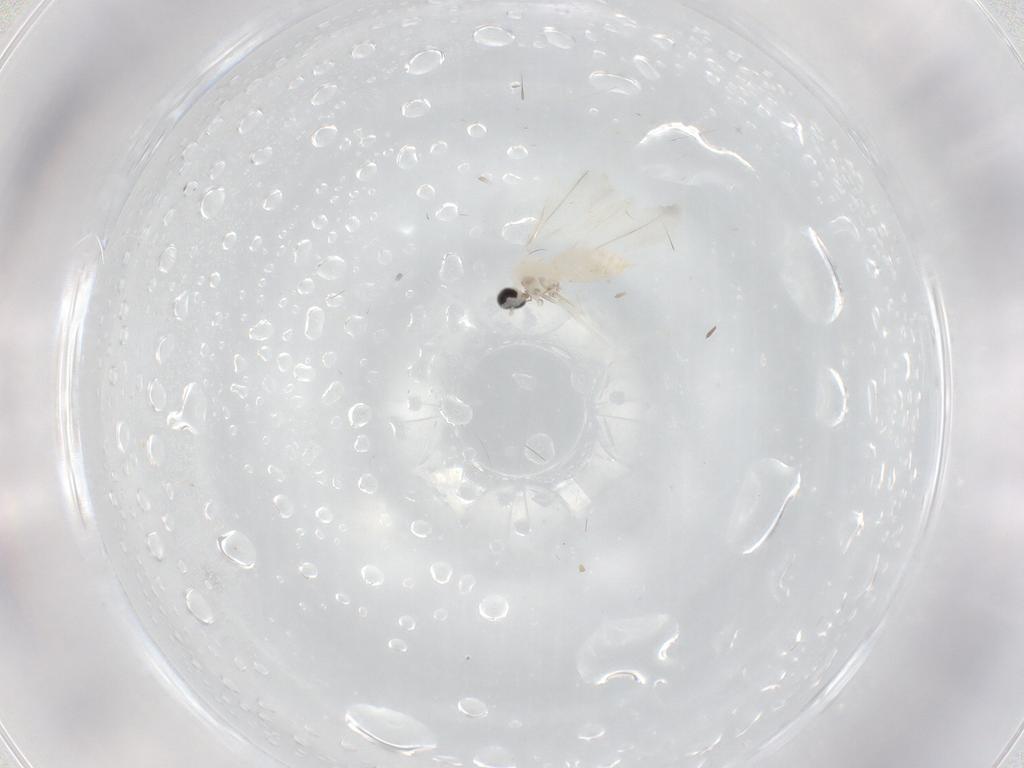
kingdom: Animalia
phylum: Arthropoda
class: Insecta
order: Diptera
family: Cecidomyiidae
